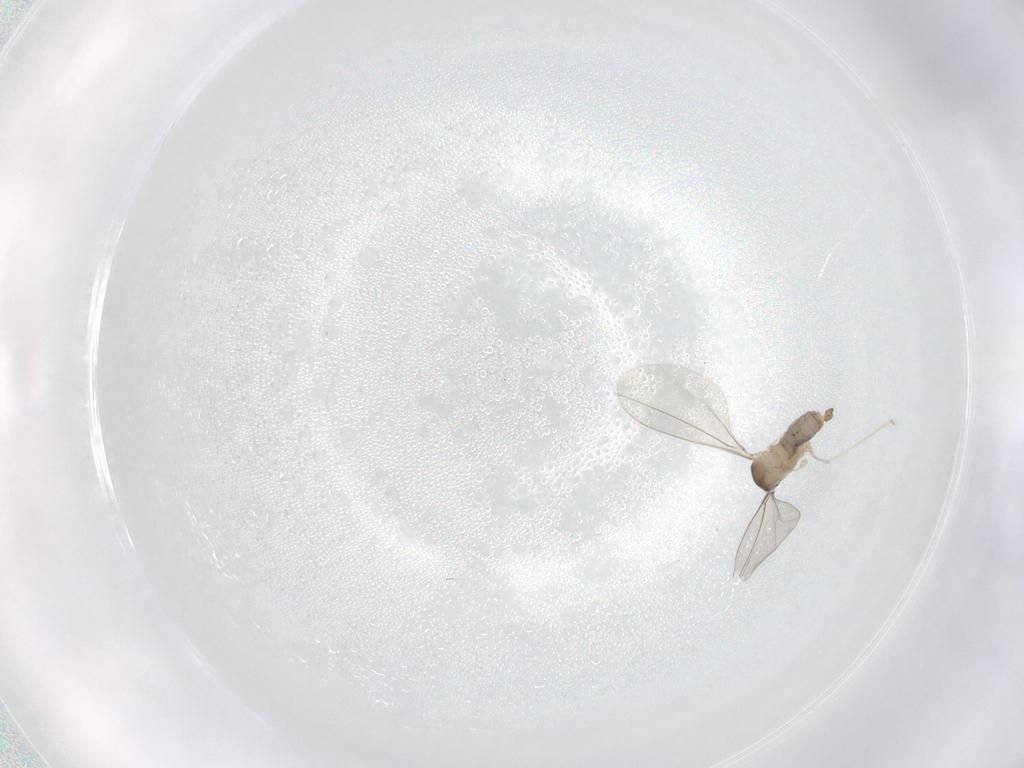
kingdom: Animalia
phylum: Arthropoda
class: Insecta
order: Diptera
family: Cecidomyiidae
